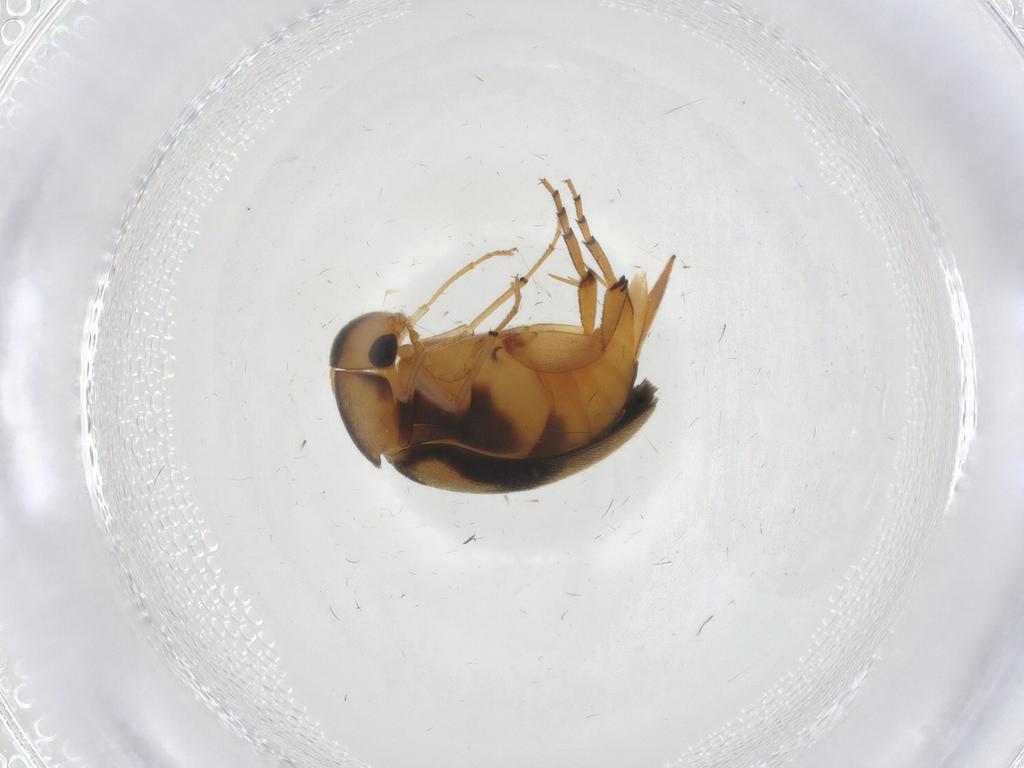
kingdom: Animalia
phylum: Arthropoda
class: Insecta
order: Coleoptera
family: Mordellidae
